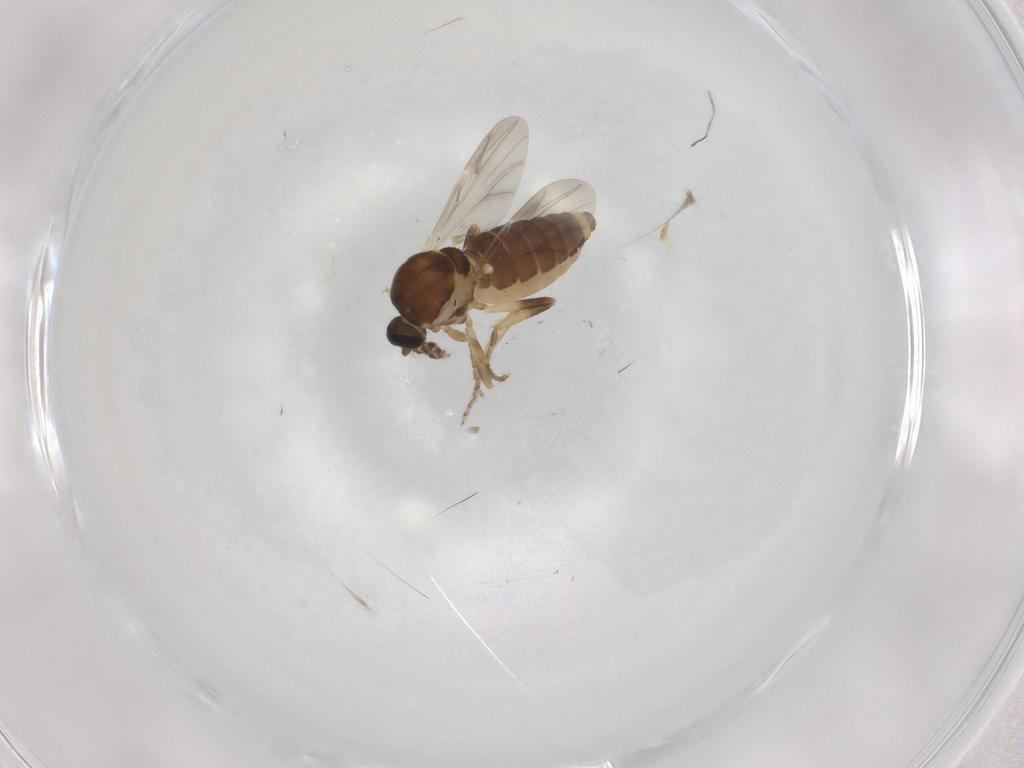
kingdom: Animalia
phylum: Arthropoda
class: Insecta
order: Diptera
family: Ceratopogonidae
